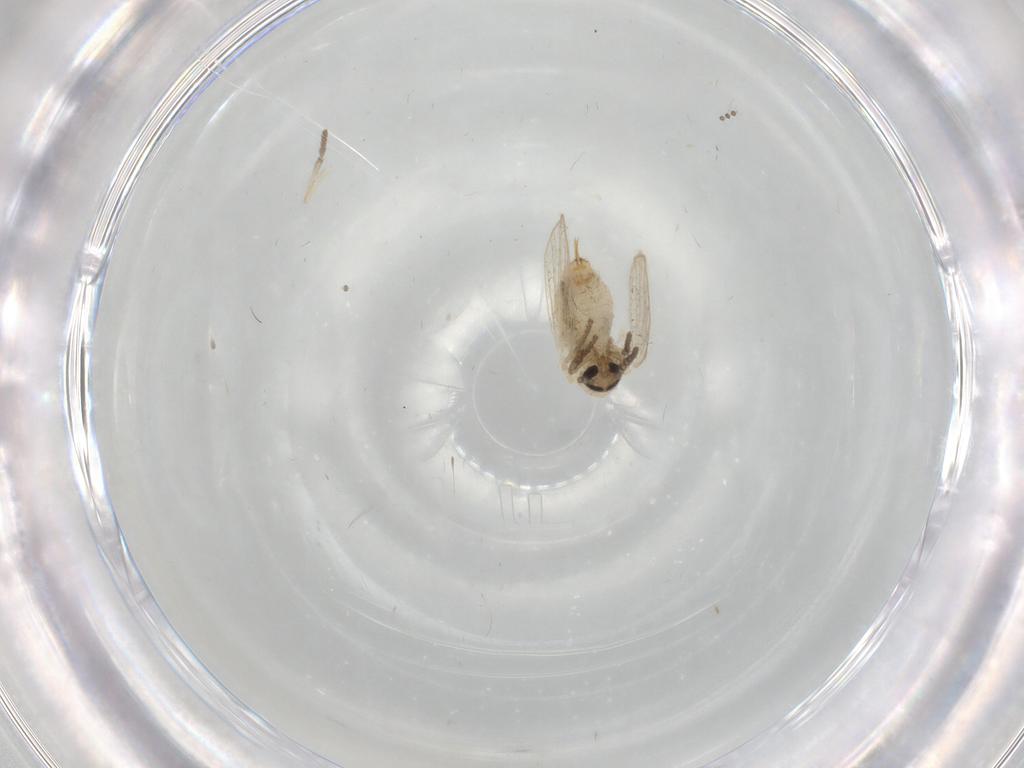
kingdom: Animalia
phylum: Arthropoda
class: Insecta
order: Diptera
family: Psychodidae
